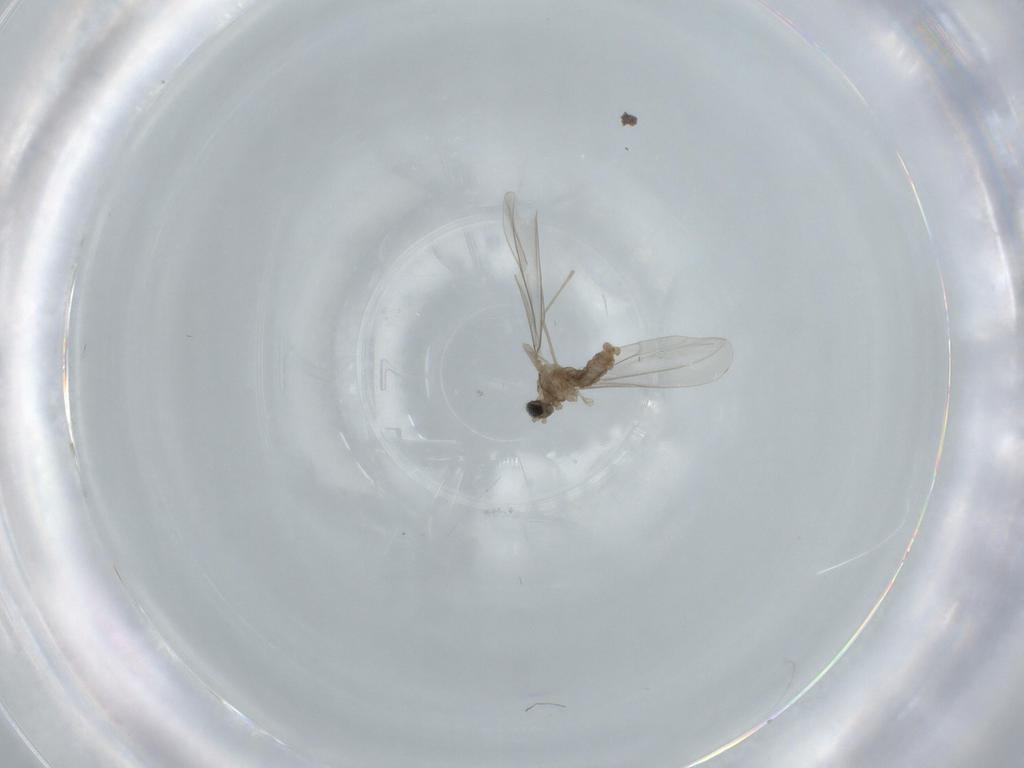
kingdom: Animalia
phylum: Arthropoda
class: Insecta
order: Diptera
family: Cecidomyiidae
